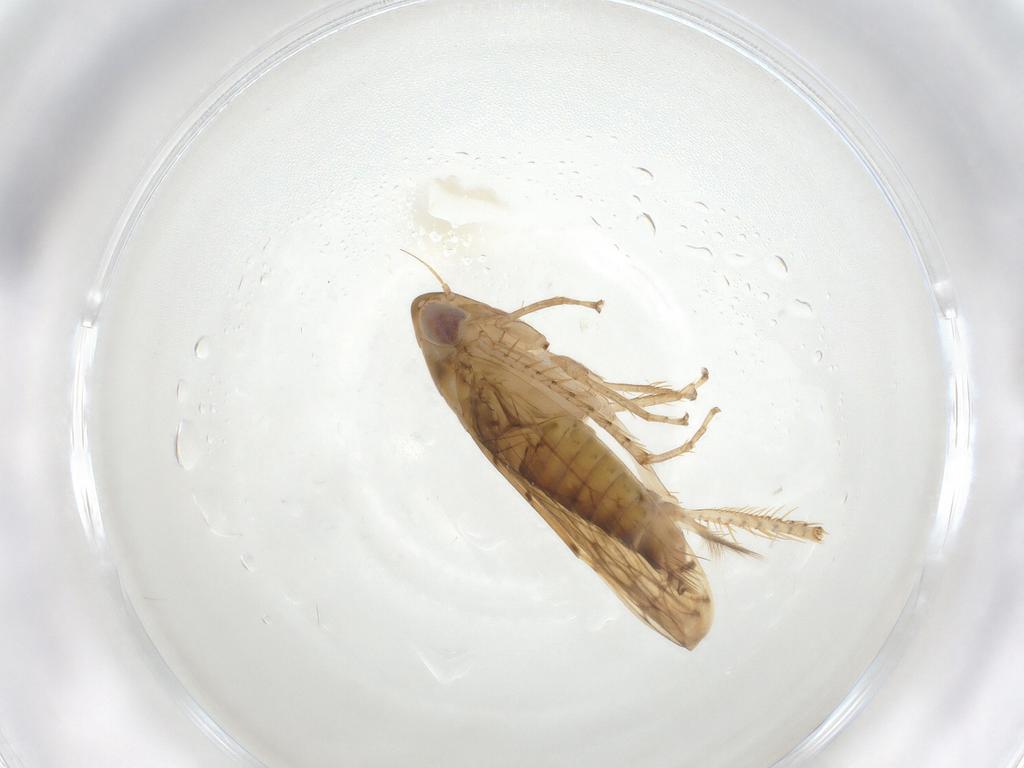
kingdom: Animalia
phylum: Arthropoda
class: Insecta
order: Hemiptera
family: Cicadellidae
